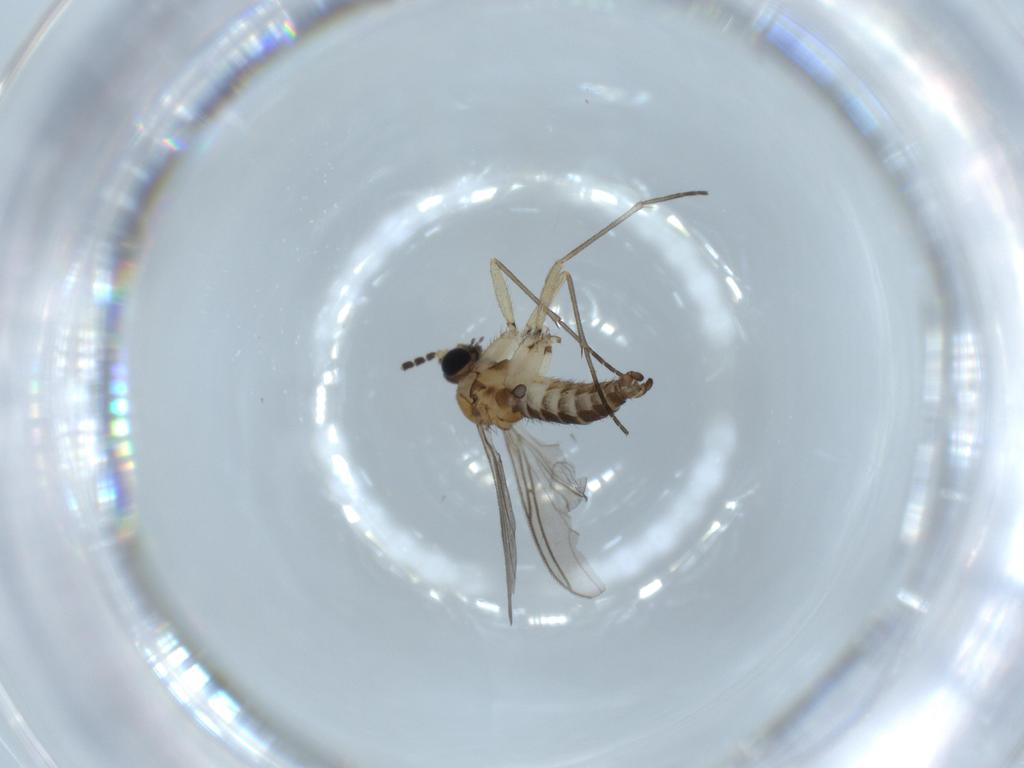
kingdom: Animalia
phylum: Arthropoda
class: Insecta
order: Diptera
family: Sciaridae
